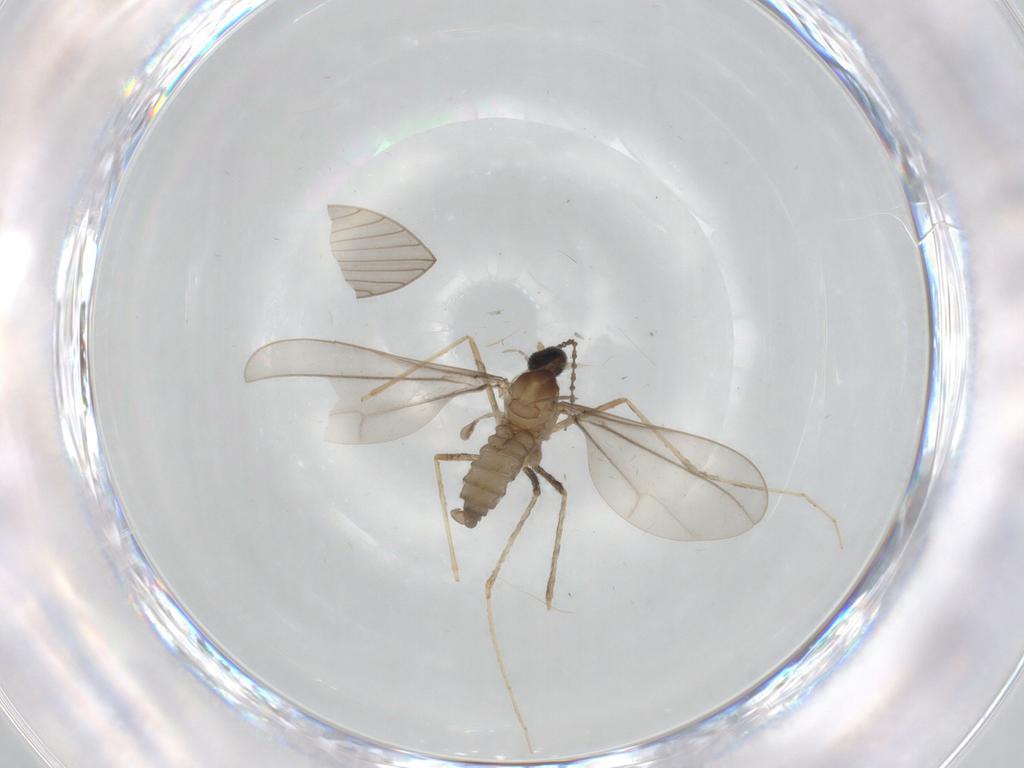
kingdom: Animalia
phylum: Arthropoda
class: Insecta
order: Diptera
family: Cecidomyiidae
